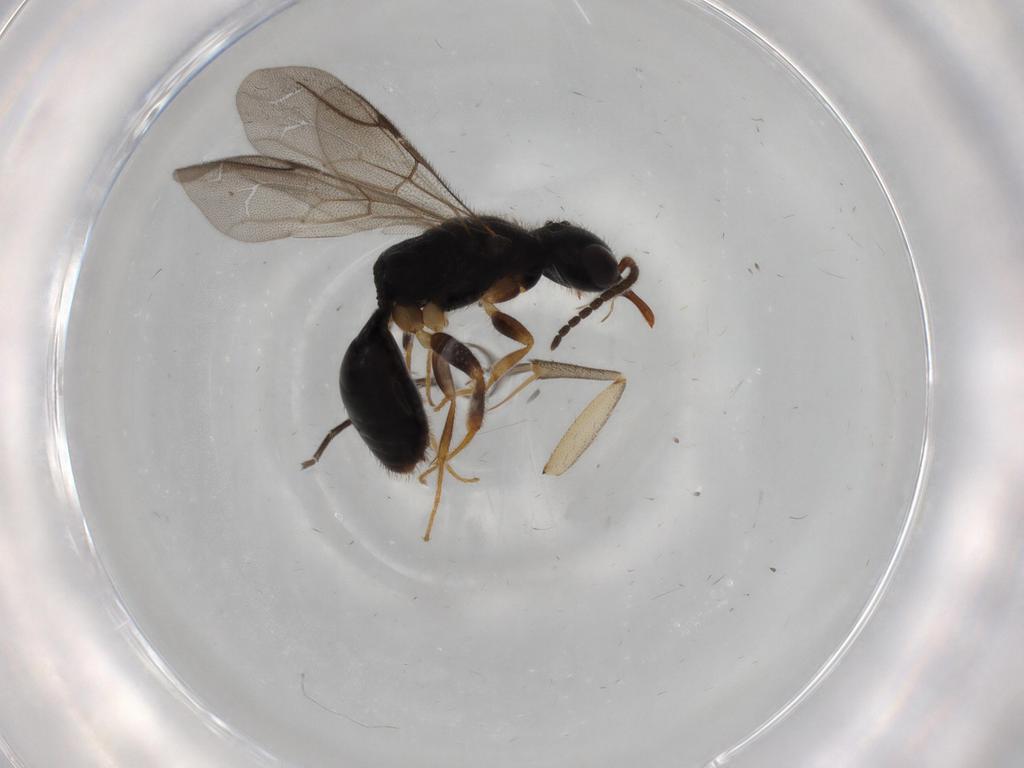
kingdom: Animalia
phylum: Arthropoda
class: Insecta
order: Hymenoptera
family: Bethylidae
